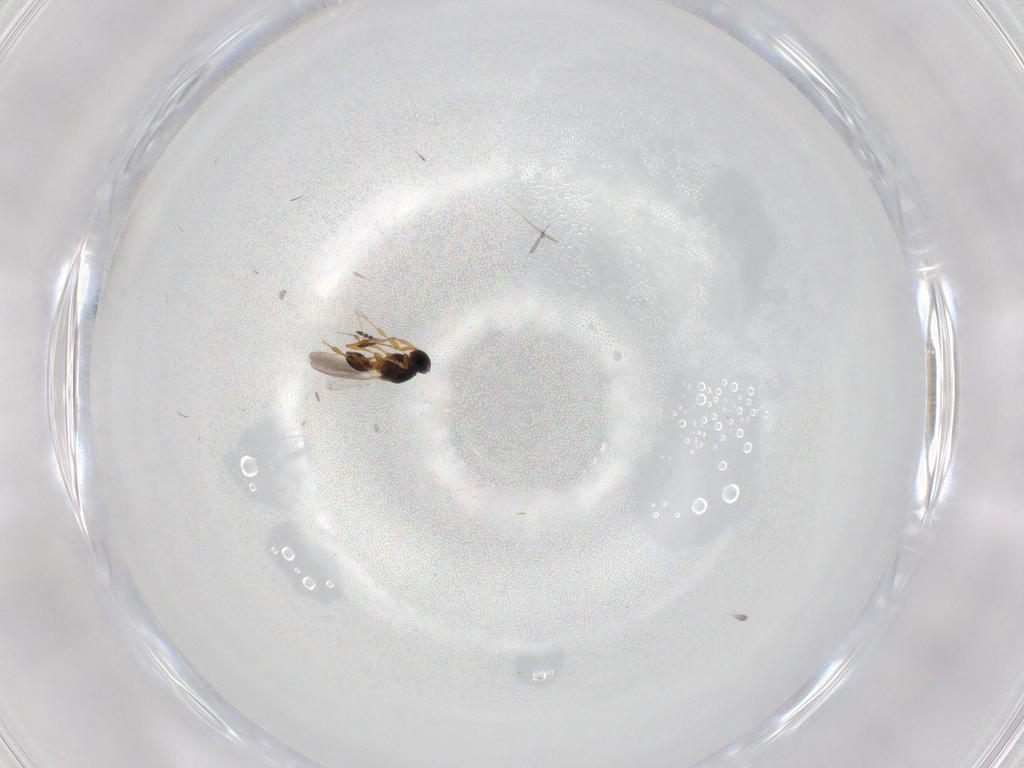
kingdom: Animalia
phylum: Arthropoda
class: Insecta
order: Hymenoptera
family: Platygastridae
